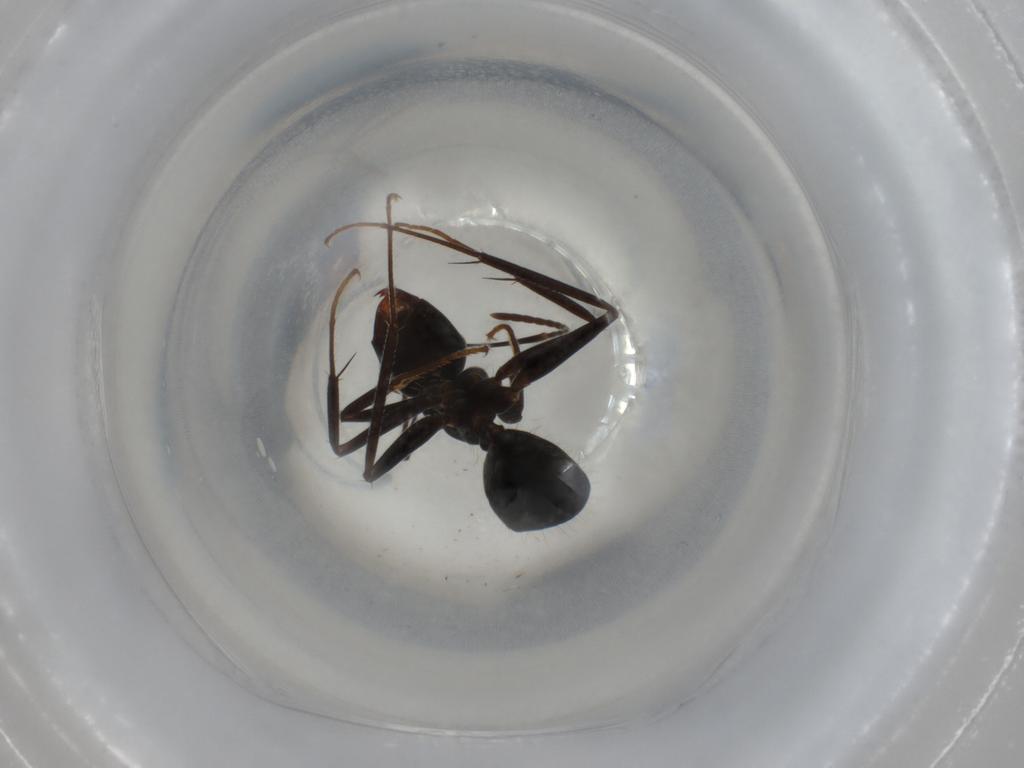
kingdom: Animalia
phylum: Arthropoda
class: Insecta
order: Hymenoptera
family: Formicidae
